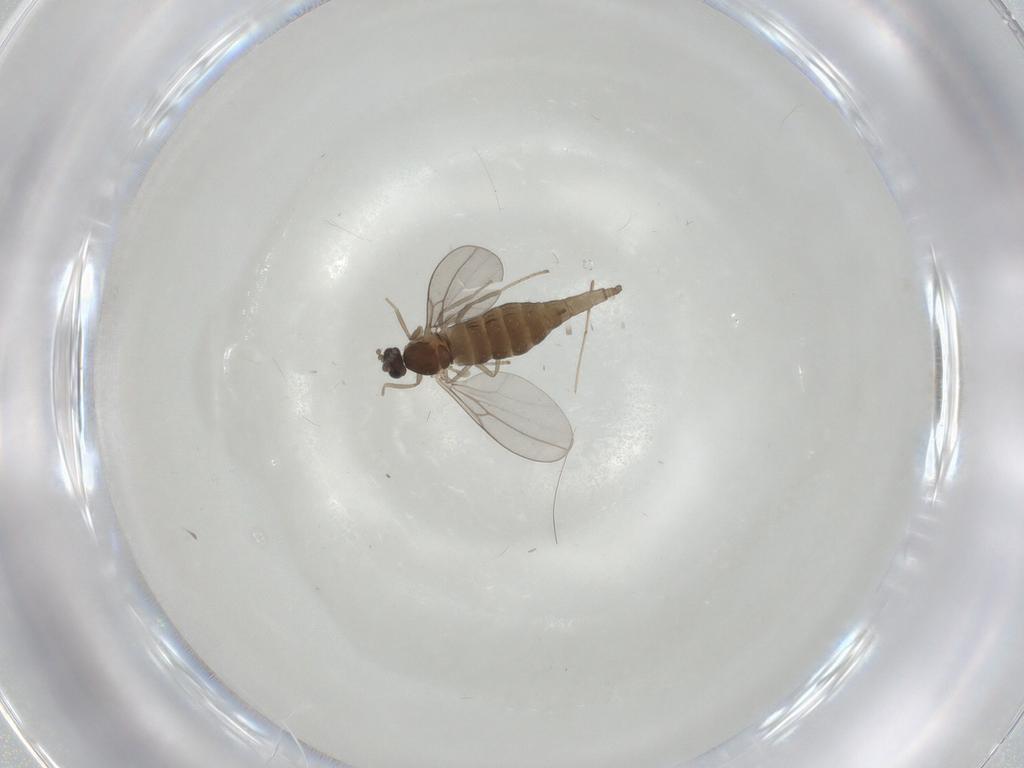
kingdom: Animalia
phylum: Arthropoda
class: Insecta
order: Diptera
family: Cecidomyiidae
